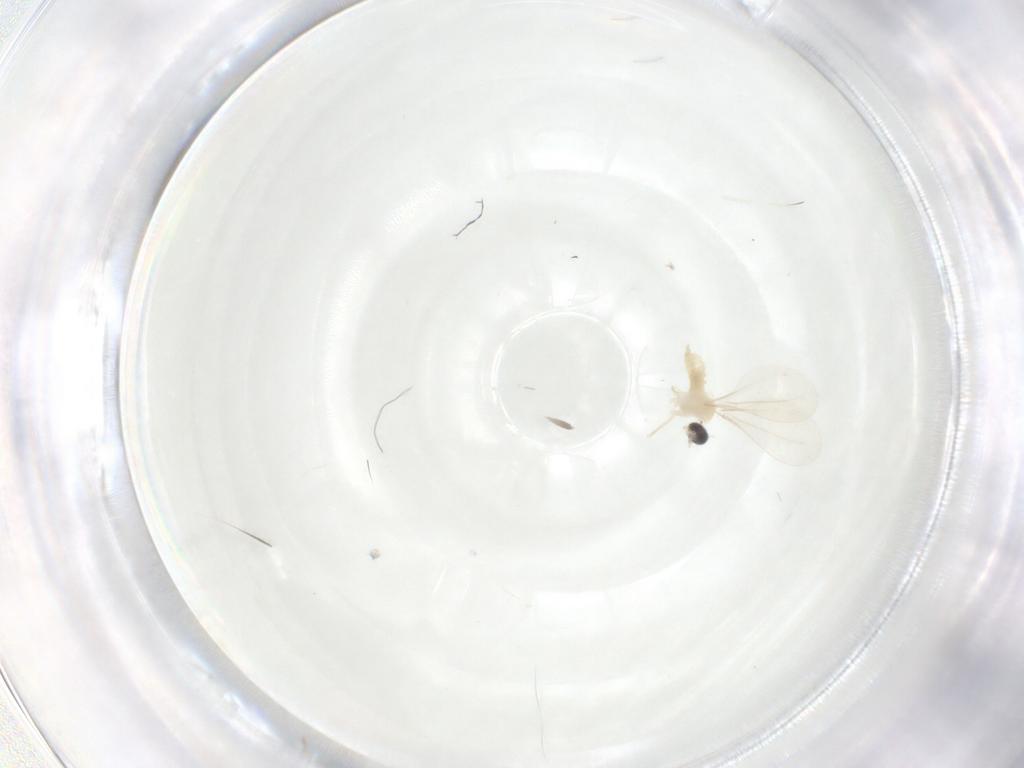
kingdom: Animalia
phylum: Arthropoda
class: Insecta
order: Diptera
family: Cecidomyiidae
